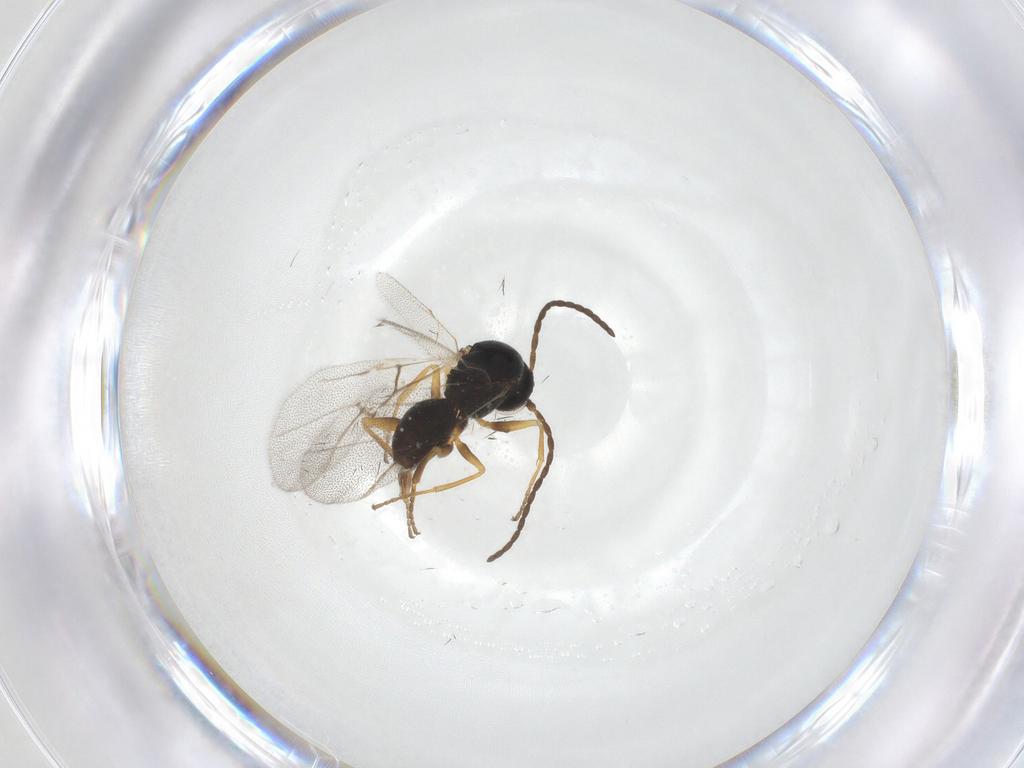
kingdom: Animalia
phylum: Arthropoda
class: Insecta
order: Hymenoptera
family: Cynipidae
